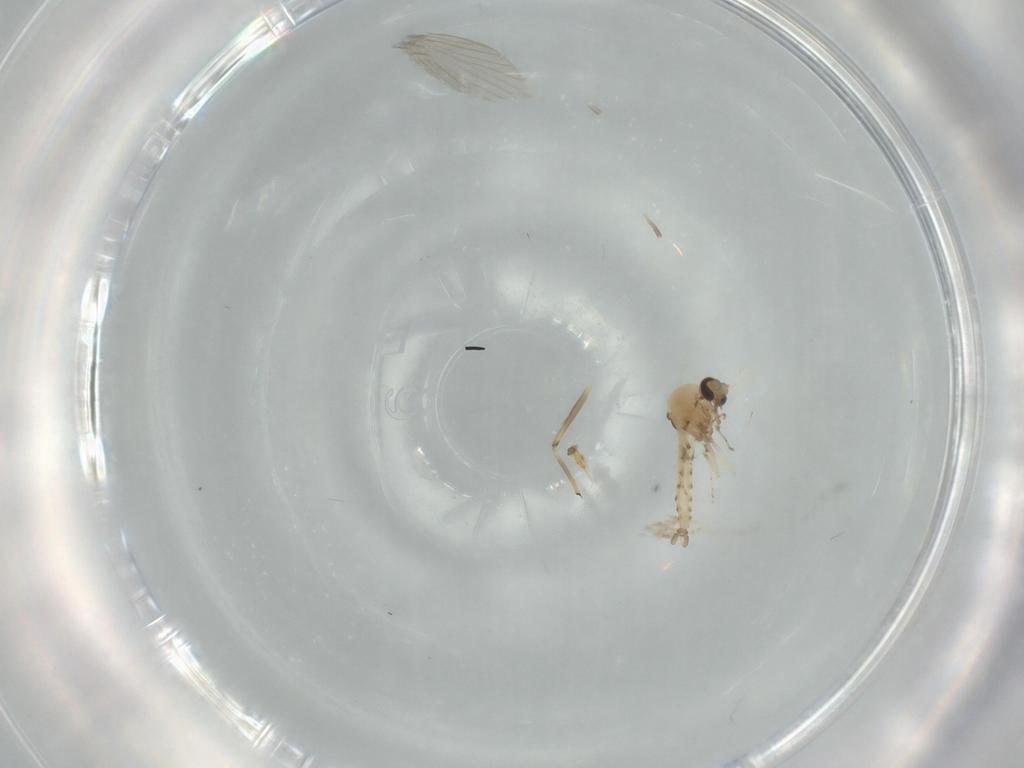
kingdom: Animalia
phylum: Arthropoda
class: Insecta
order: Diptera
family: Chironomidae
